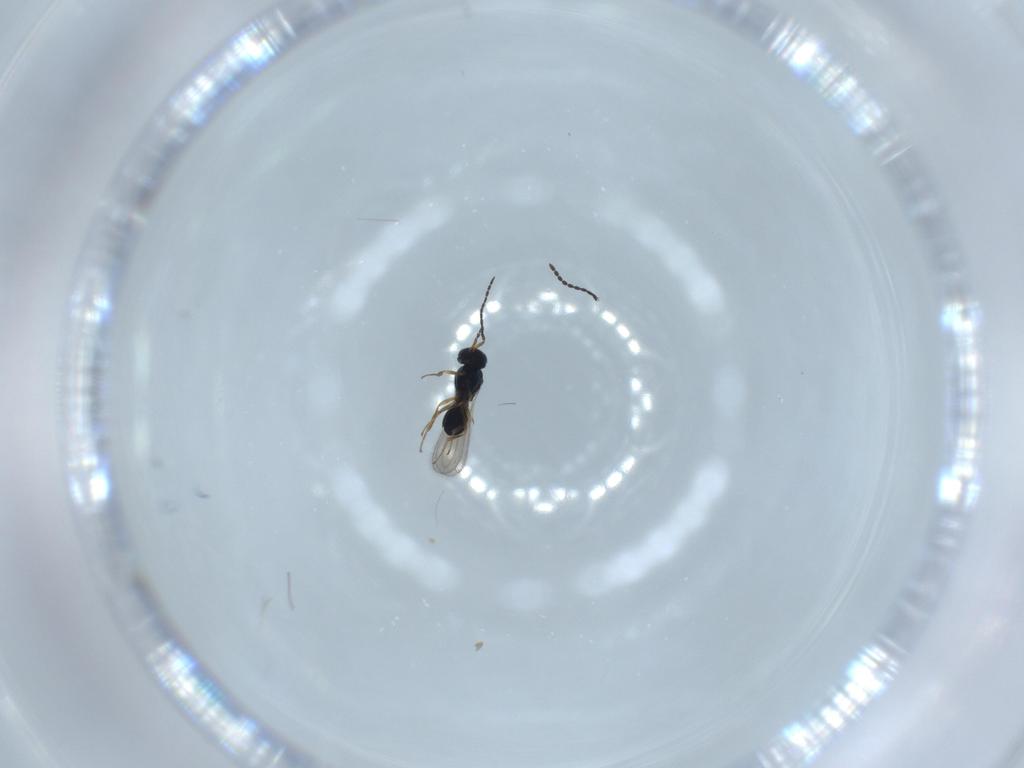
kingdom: Animalia
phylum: Arthropoda
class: Insecta
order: Hymenoptera
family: Scelionidae
